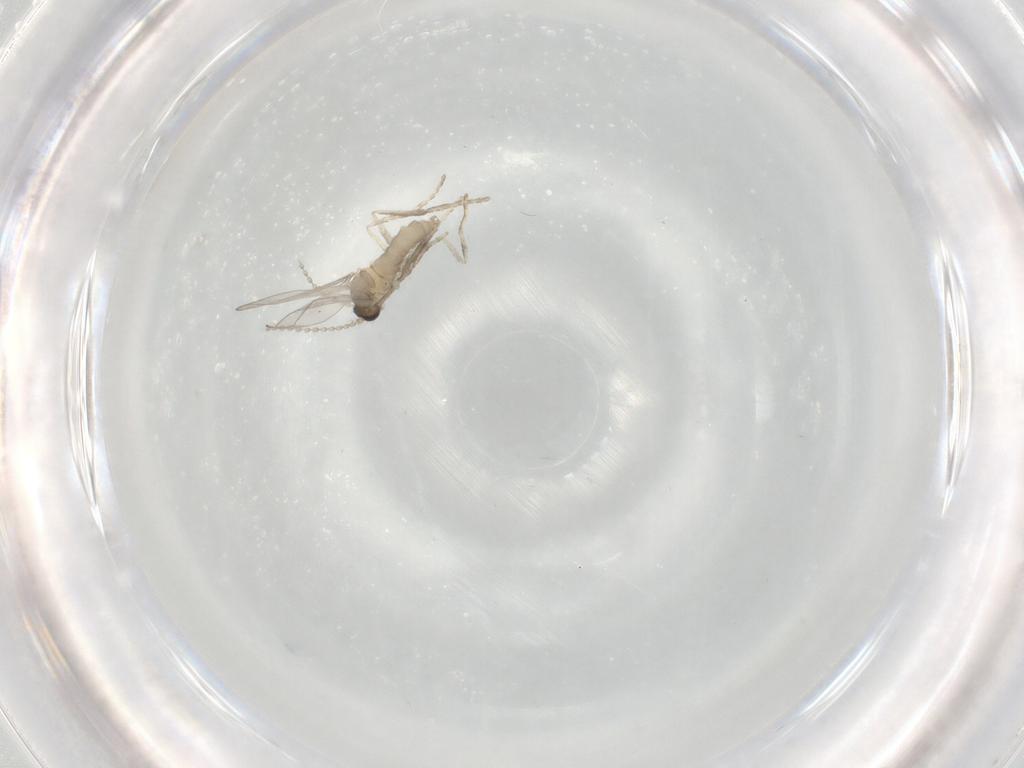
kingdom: Animalia
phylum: Arthropoda
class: Insecta
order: Diptera
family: Cecidomyiidae
